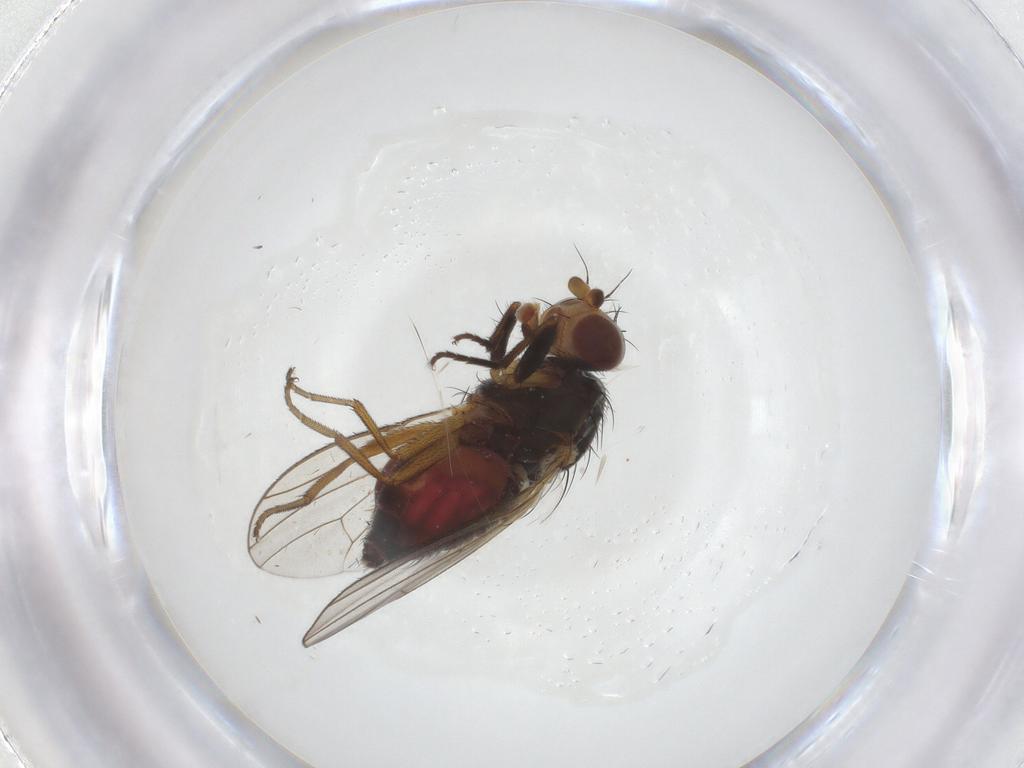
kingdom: Animalia
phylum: Arthropoda
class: Insecta
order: Diptera
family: Heleomyzidae
